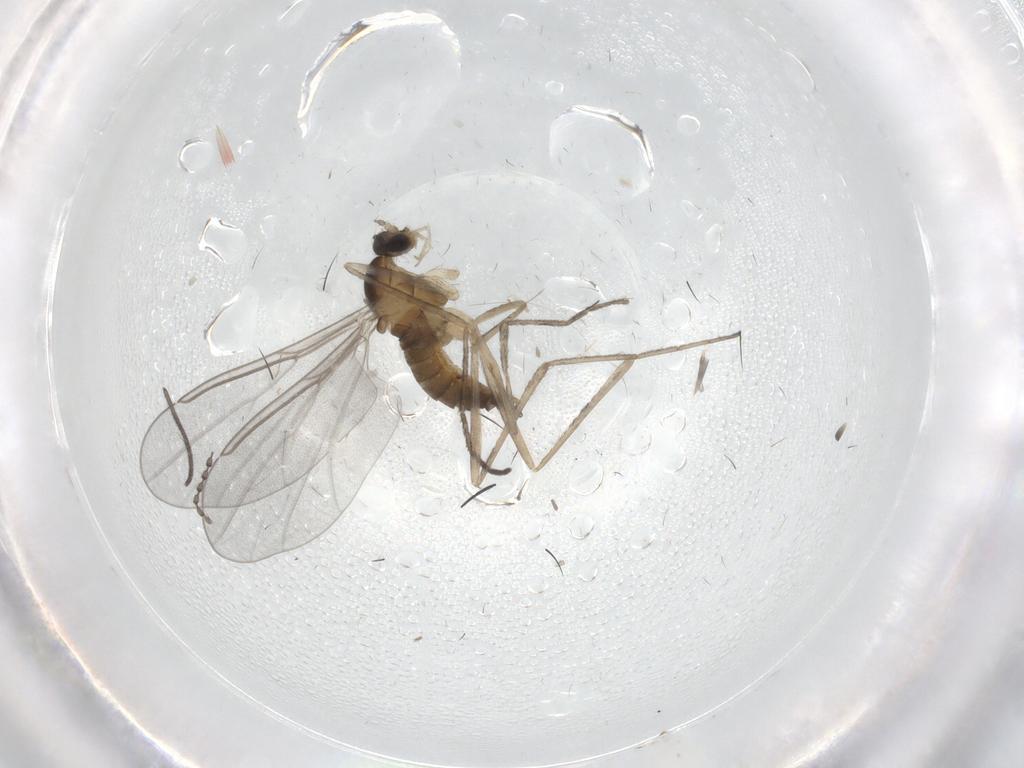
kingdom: Animalia
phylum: Arthropoda
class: Insecta
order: Diptera
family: Cecidomyiidae
